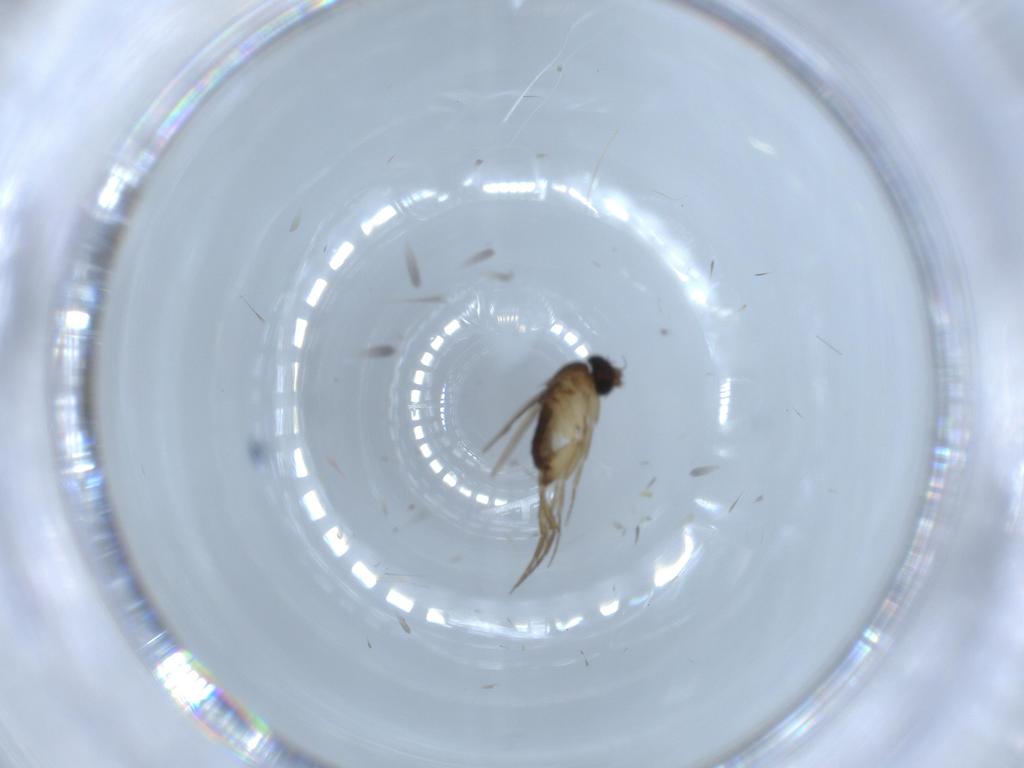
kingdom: Animalia
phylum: Arthropoda
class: Insecta
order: Diptera
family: Phoridae
